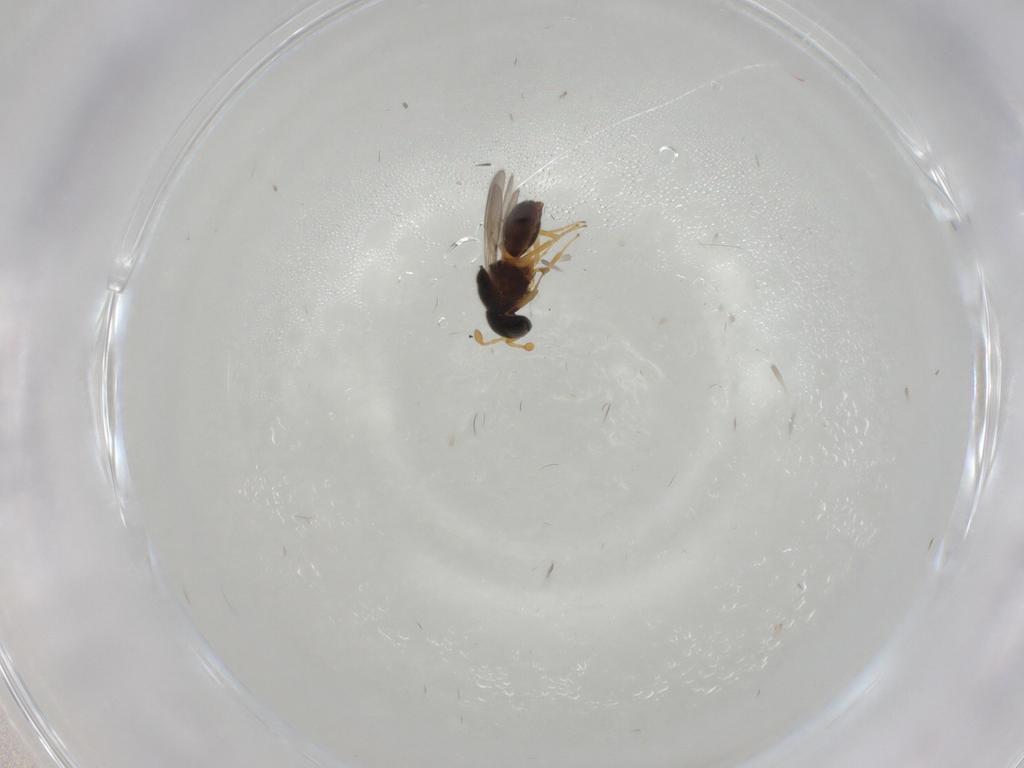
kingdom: Animalia
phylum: Arthropoda
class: Insecta
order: Hymenoptera
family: Scelionidae
